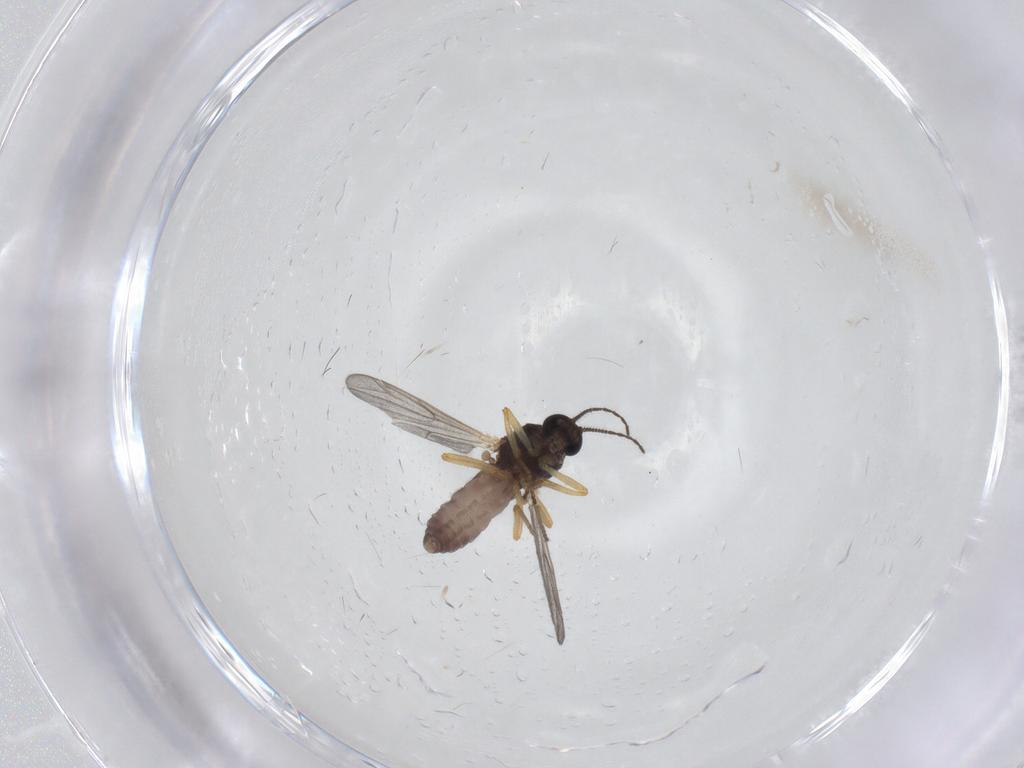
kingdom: Animalia
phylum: Arthropoda
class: Insecta
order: Diptera
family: Ceratopogonidae
